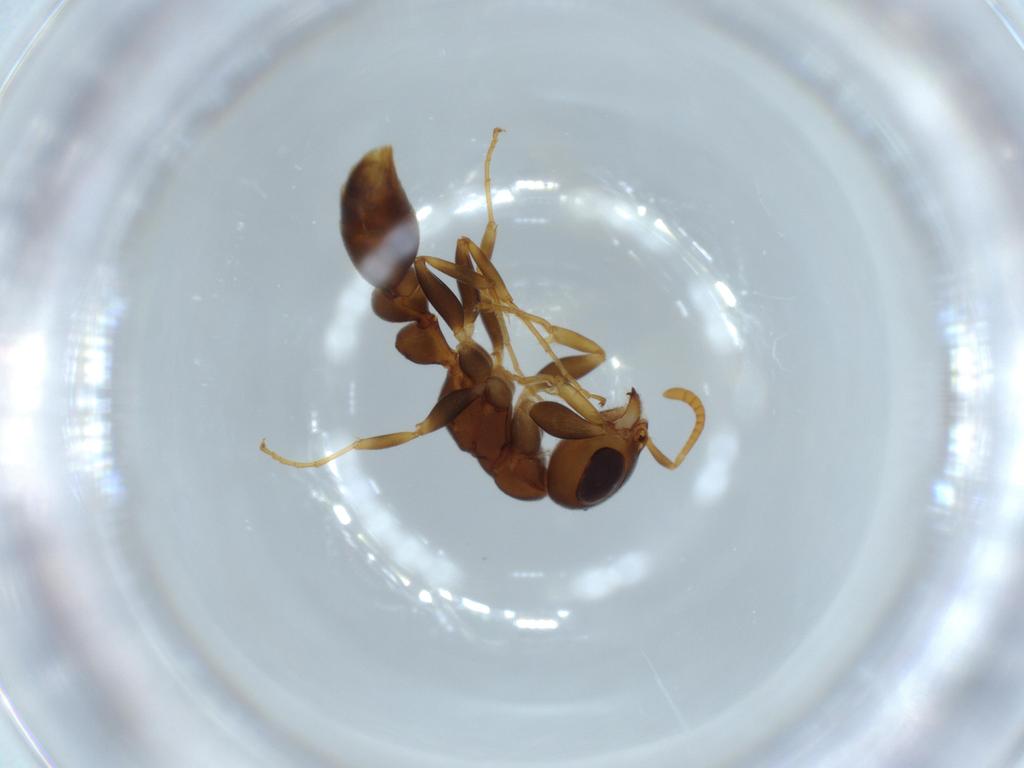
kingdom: Animalia
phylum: Arthropoda
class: Insecta
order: Hymenoptera
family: Formicidae
